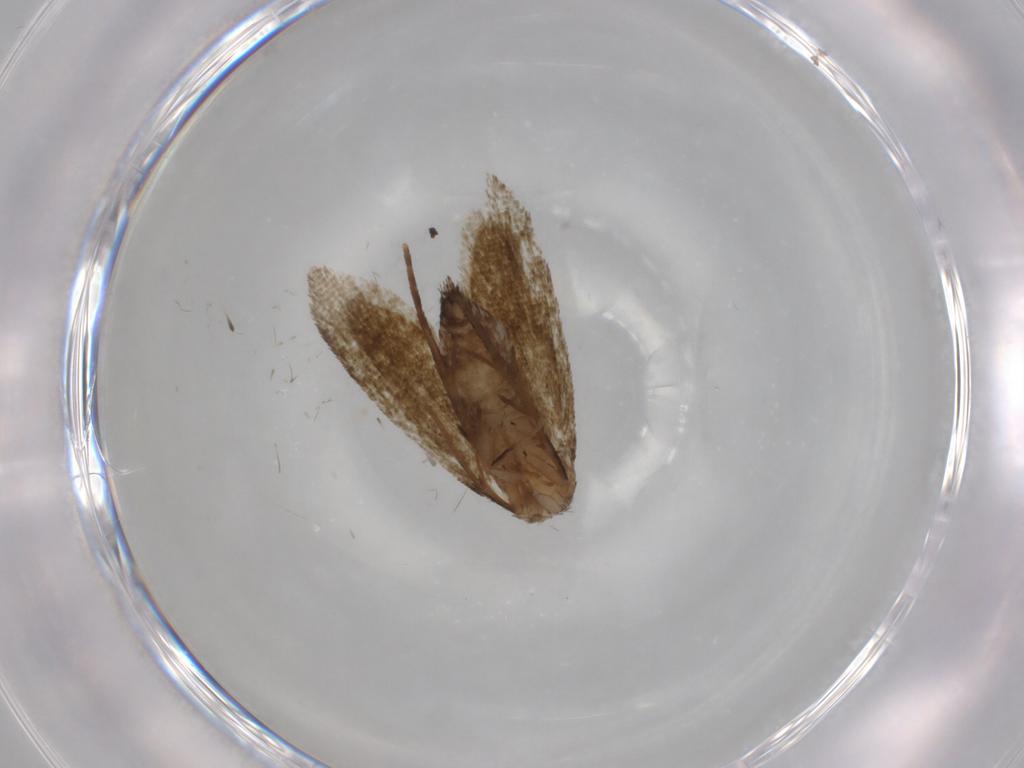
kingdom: Animalia
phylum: Arthropoda
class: Insecta
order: Lepidoptera
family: Tineidae
